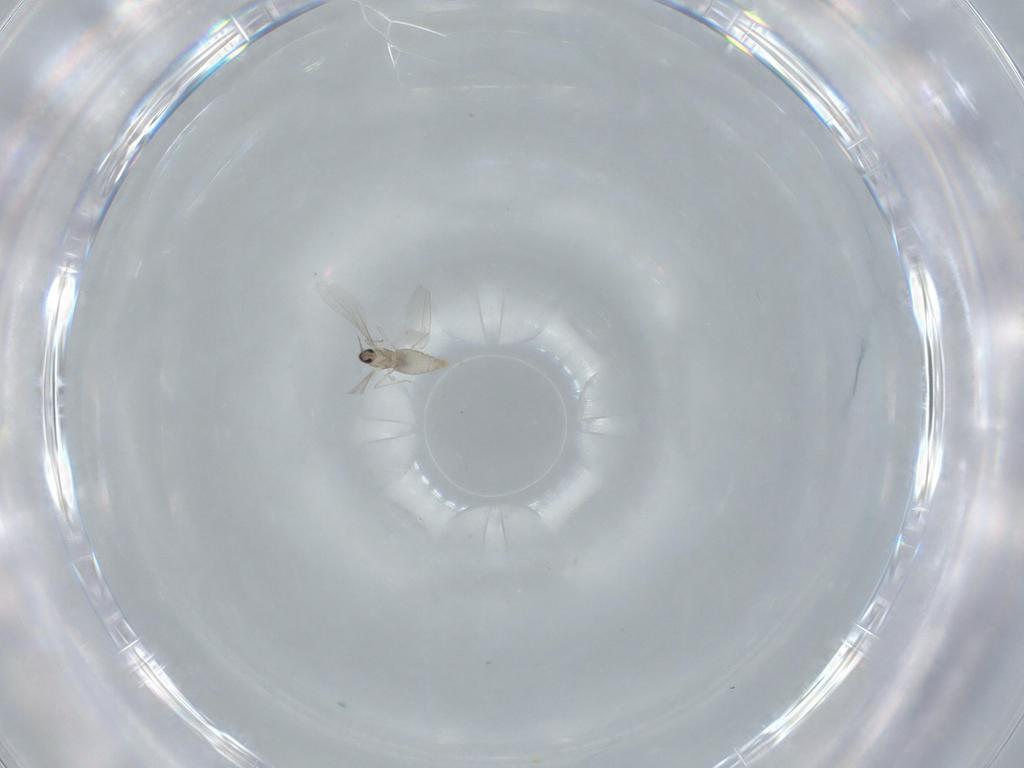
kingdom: Animalia
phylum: Arthropoda
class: Insecta
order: Diptera
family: Cecidomyiidae
